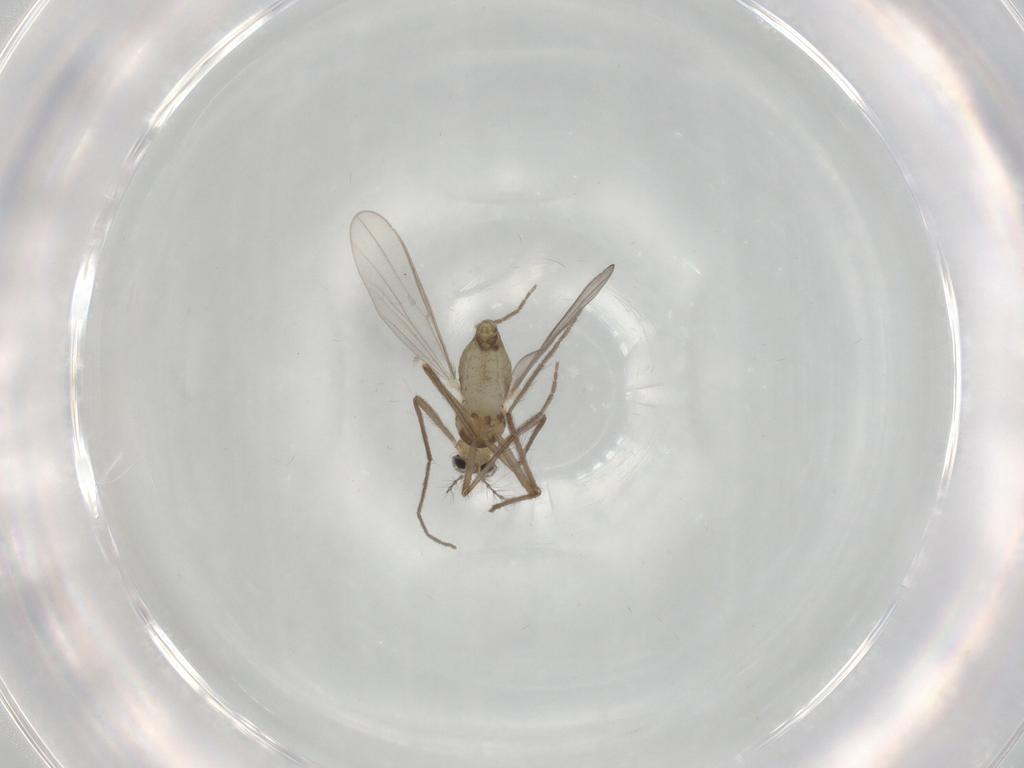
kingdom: Animalia
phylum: Arthropoda
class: Insecta
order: Diptera
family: Chironomidae
